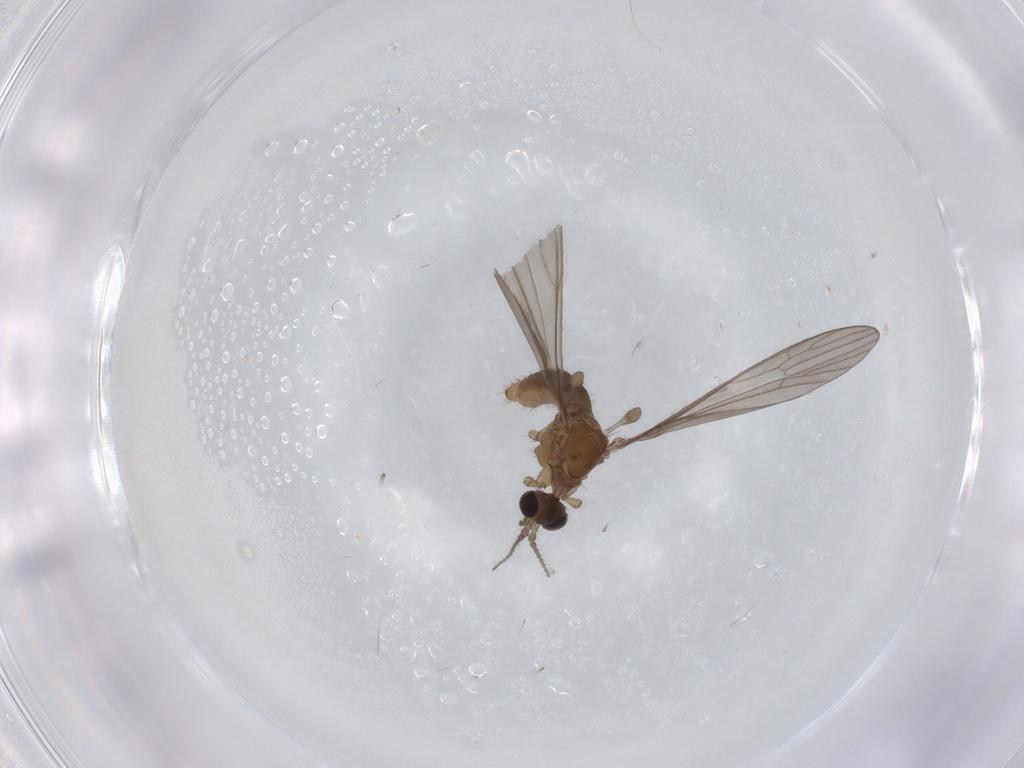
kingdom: Animalia
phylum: Arthropoda
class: Insecta
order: Diptera
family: Limoniidae
